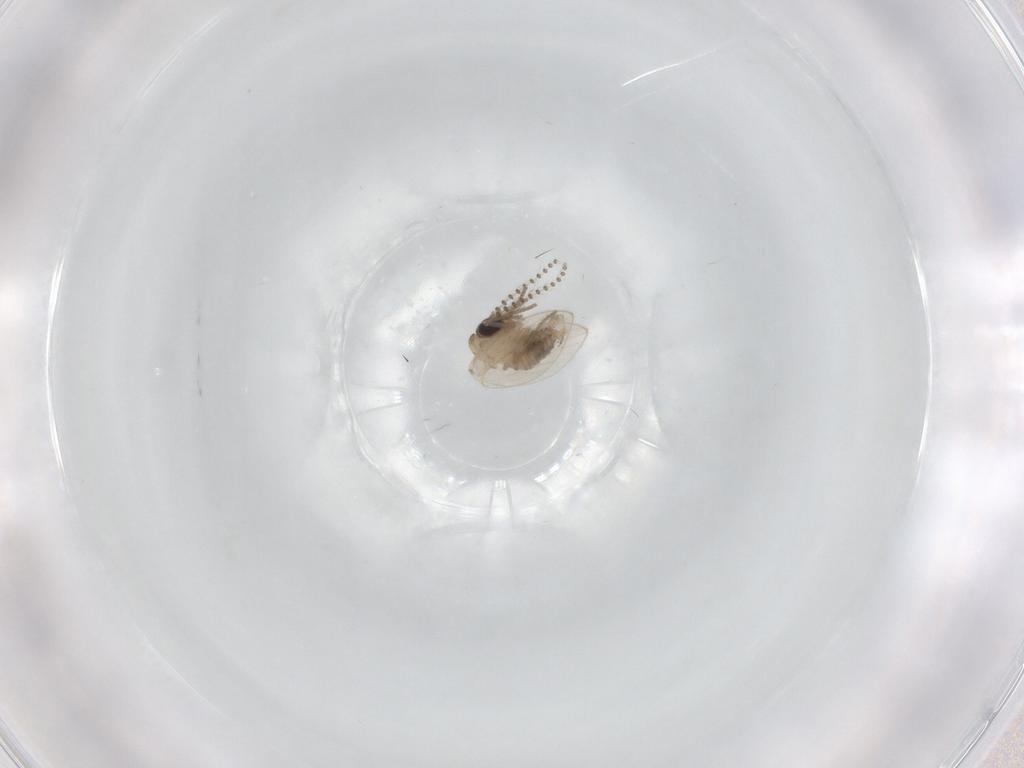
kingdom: Animalia
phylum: Arthropoda
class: Insecta
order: Diptera
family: Psychodidae
